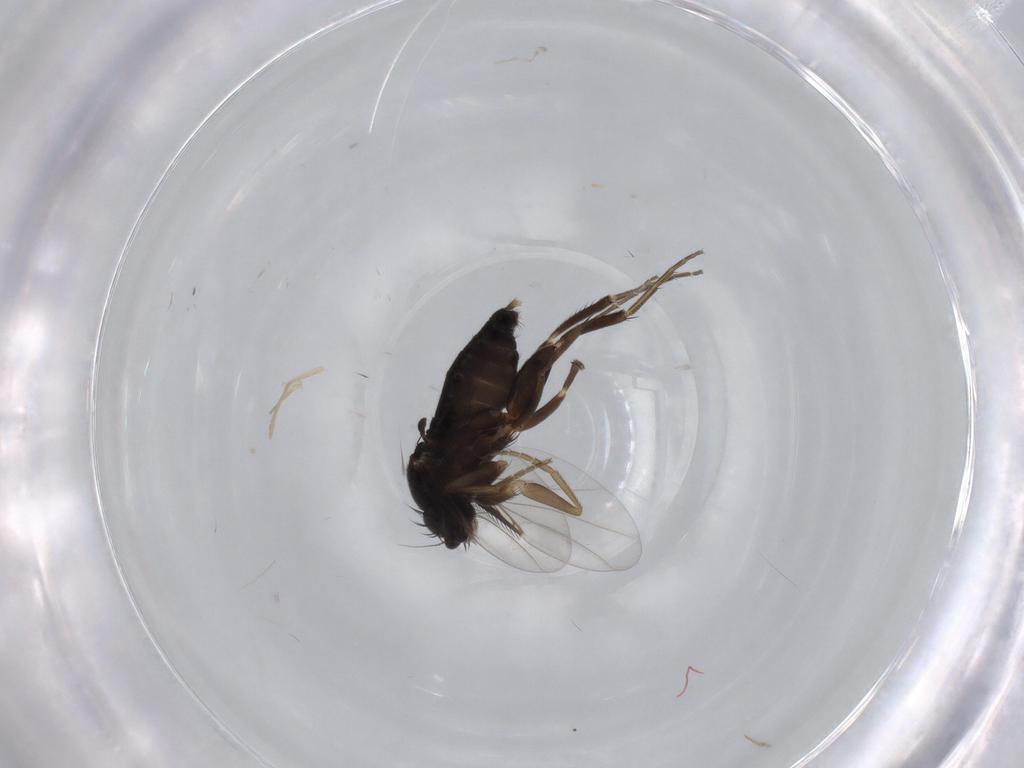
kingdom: Animalia
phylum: Arthropoda
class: Insecta
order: Diptera
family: Phoridae
